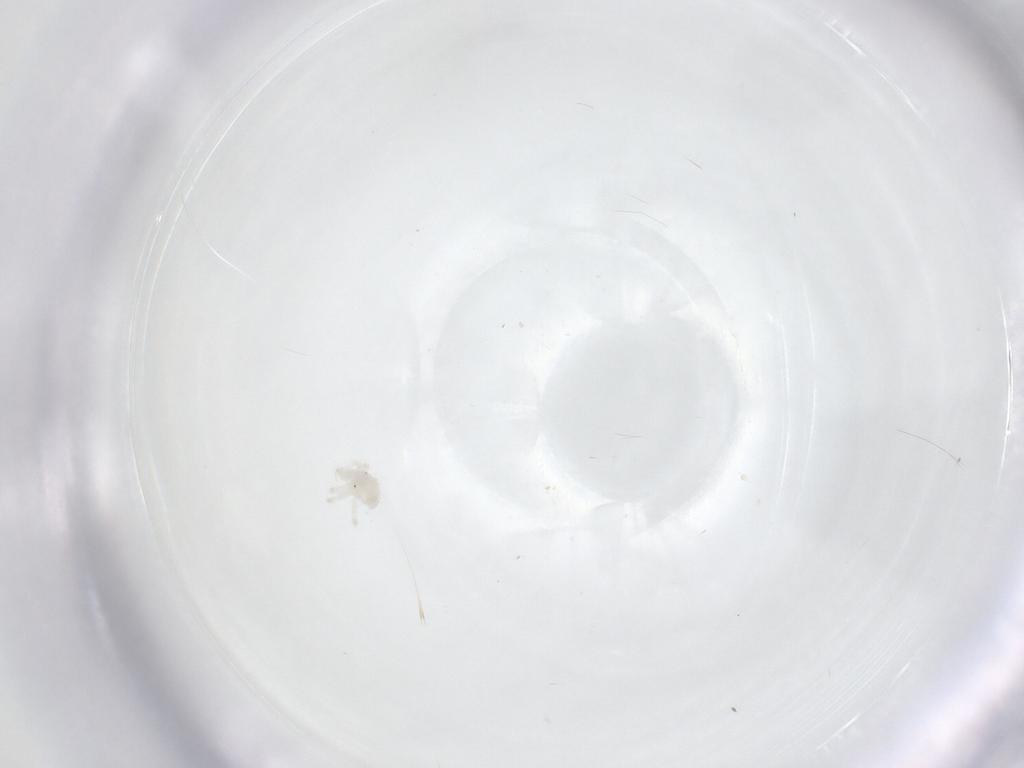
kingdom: Animalia
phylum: Arthropoda
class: Arachnida
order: Trombidiformes
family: Anystidae
